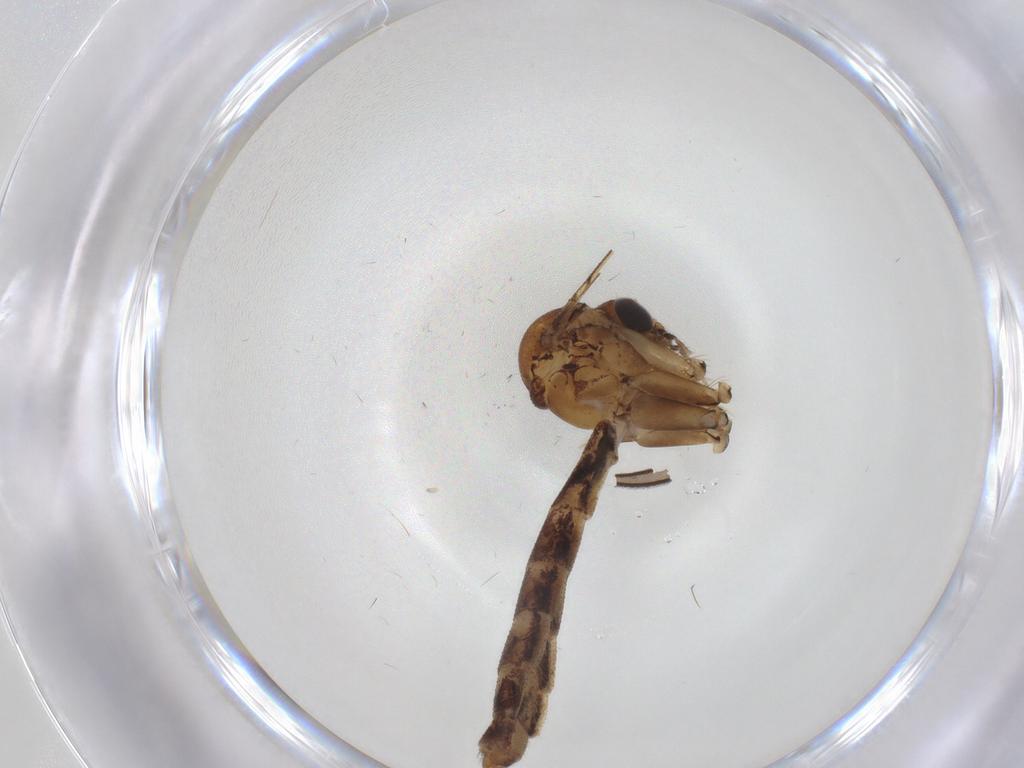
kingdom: Animalia
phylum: Arthropoda
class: Insecta
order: Diptera
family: Mycetophilidae
